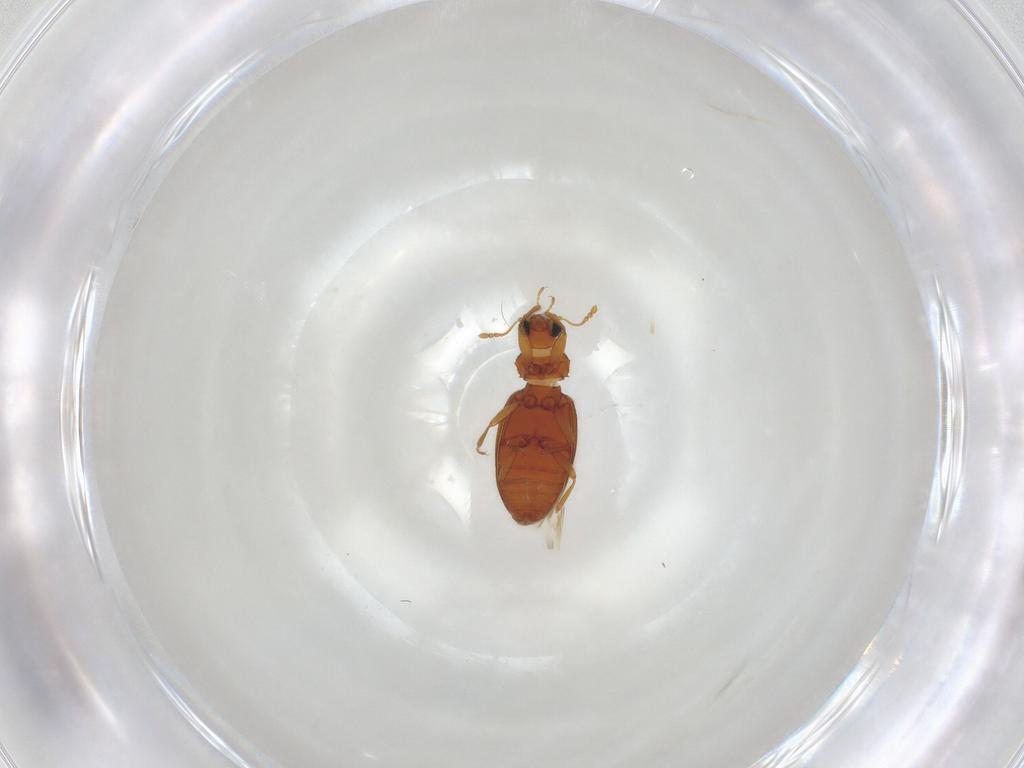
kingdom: Animalia
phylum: Arthropoda
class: Insecta
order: Coleoptera
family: Latridiidae
